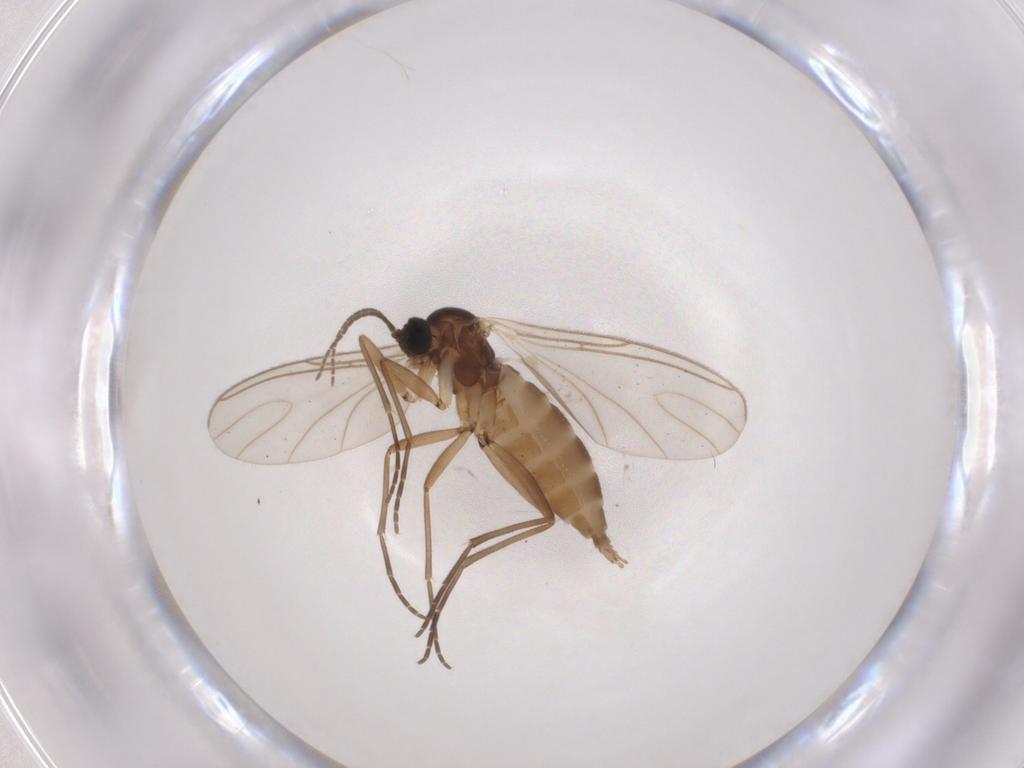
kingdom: Animalia
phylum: Arthropoda
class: Insecta
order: Diptera
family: Sciaridae
